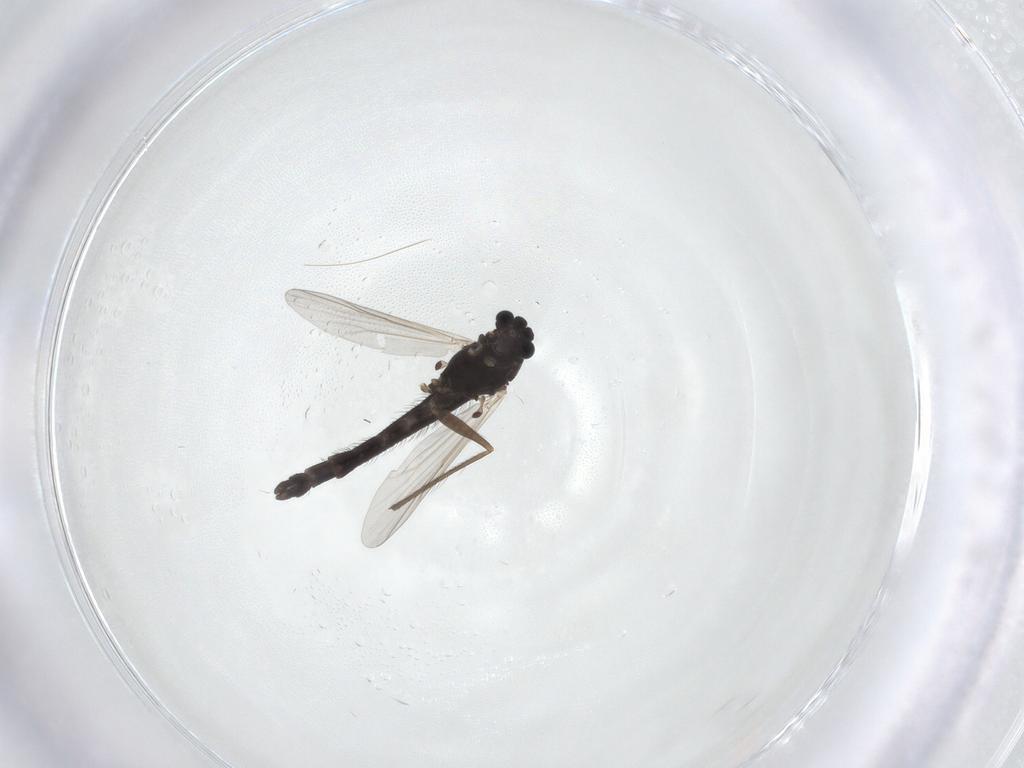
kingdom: Animalia
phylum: Arthropoda
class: Insecta
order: Diptera
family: Chironomidae
